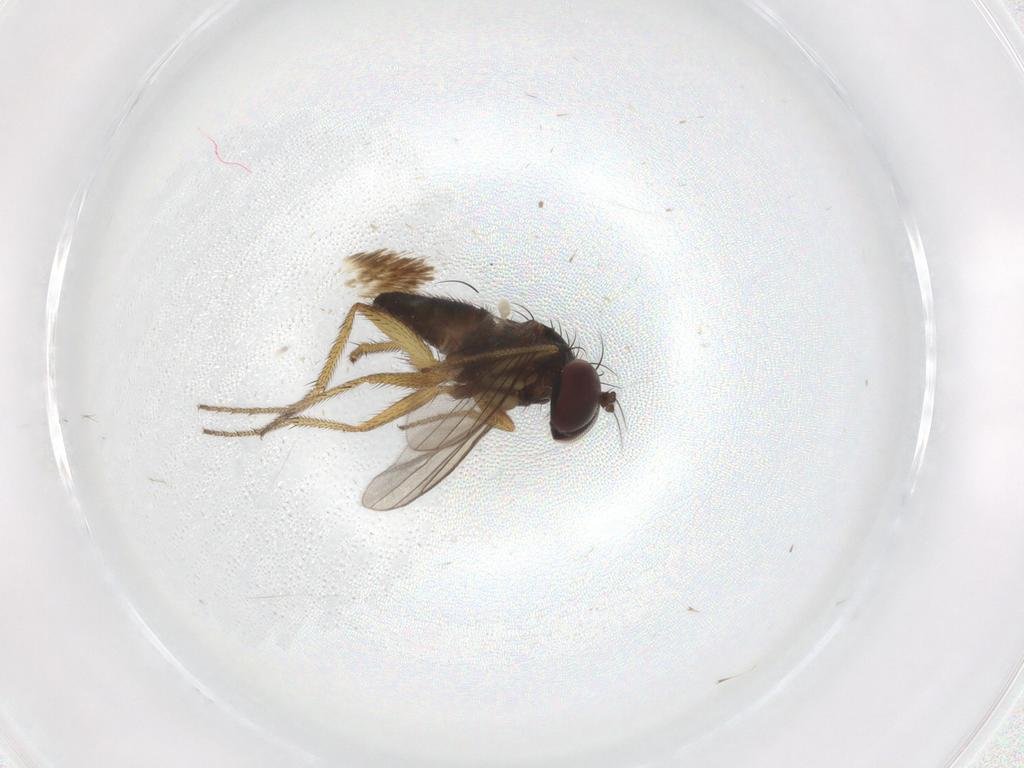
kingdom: Animalia
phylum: Arthropoda
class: Insecta
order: Diptera
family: Dolichopodidae
